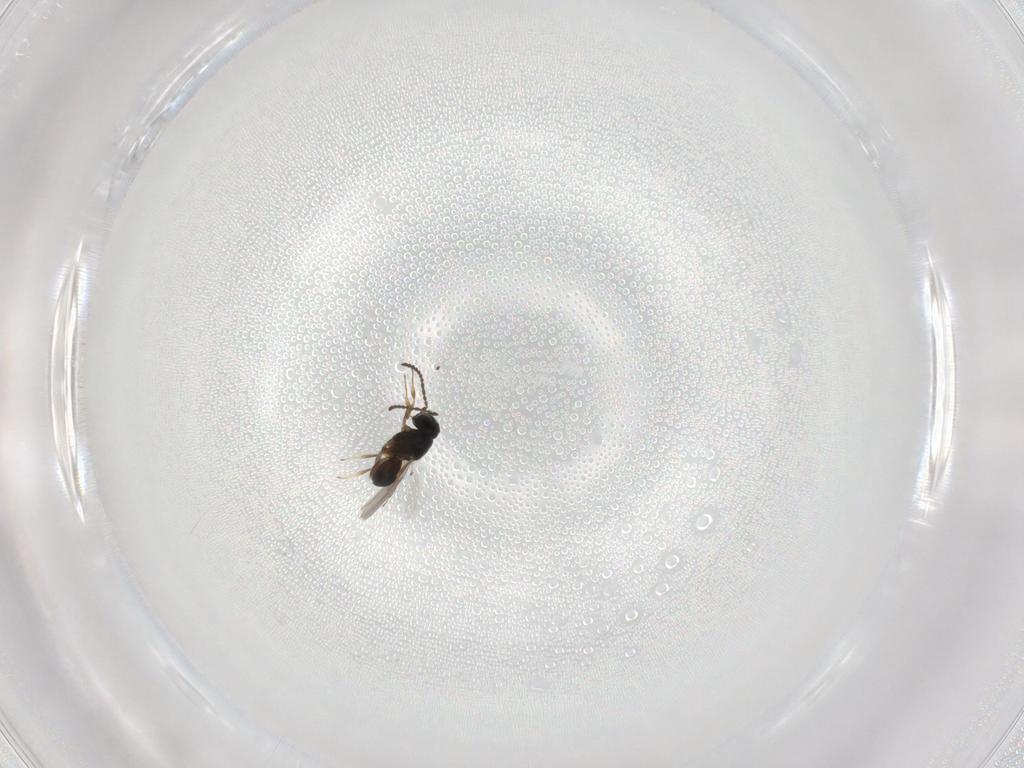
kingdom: Animalia
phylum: Arthropoda
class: Insecta
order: Hymenoptera
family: Scelionidae
